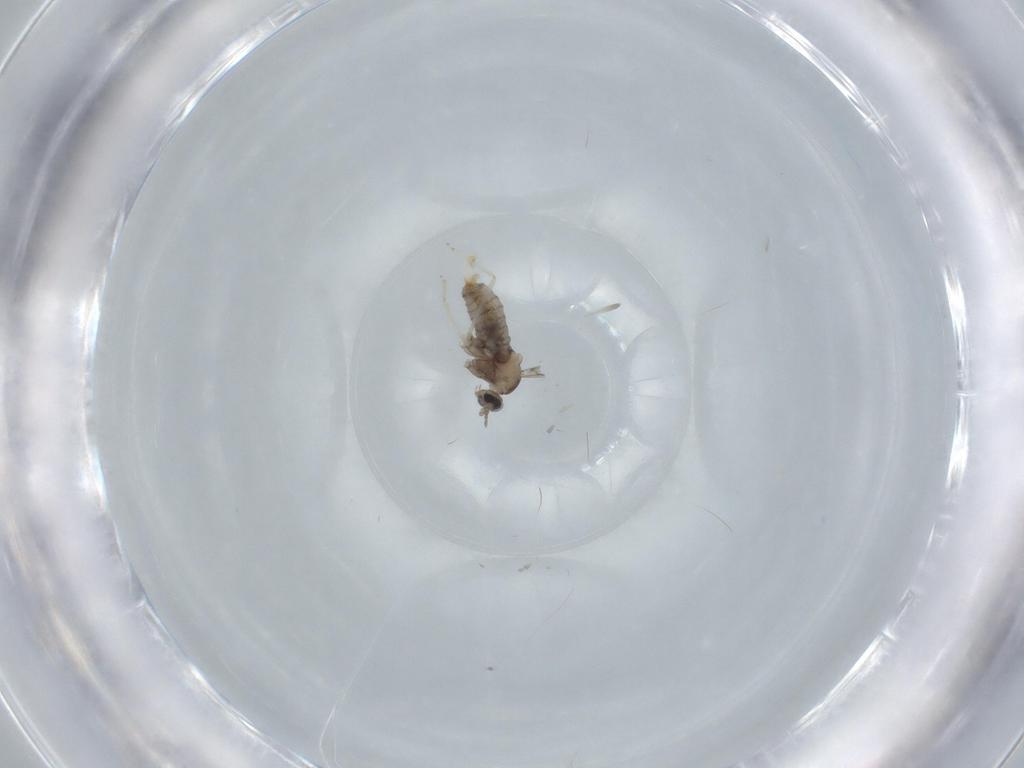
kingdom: Animalia
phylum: Arthropoda
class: Insecta
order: Diptera
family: Cecidomyiidae
